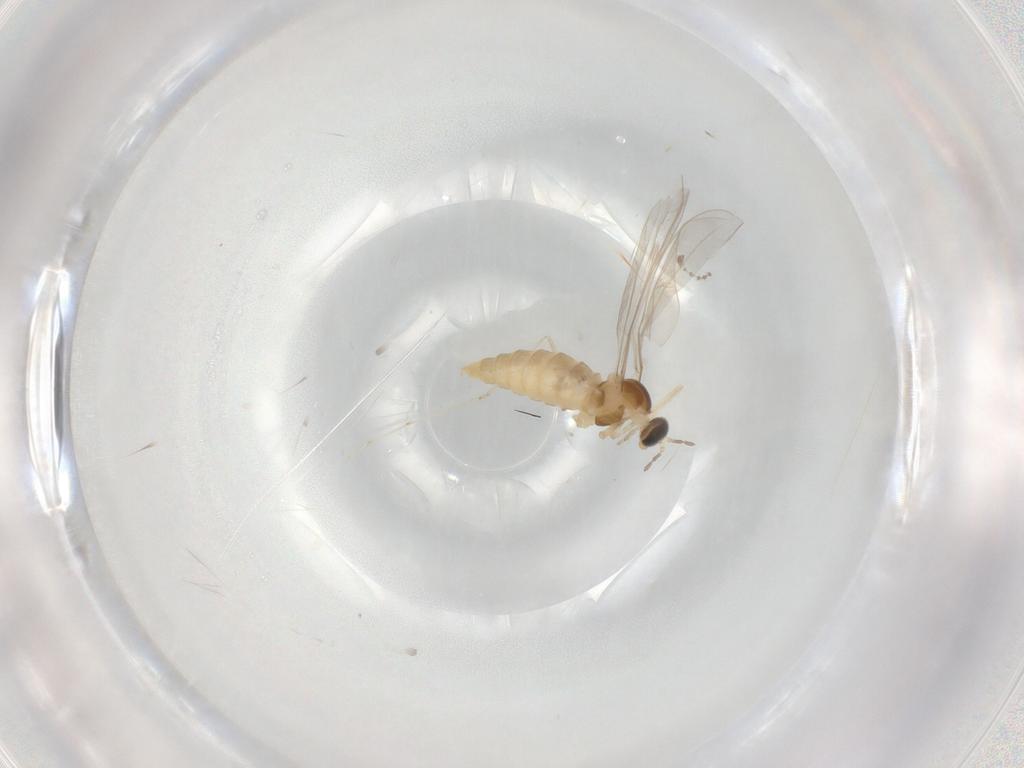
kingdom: Animalia
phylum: Arthropoda
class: Insecta
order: Diptera
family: Cecidomyiidae
